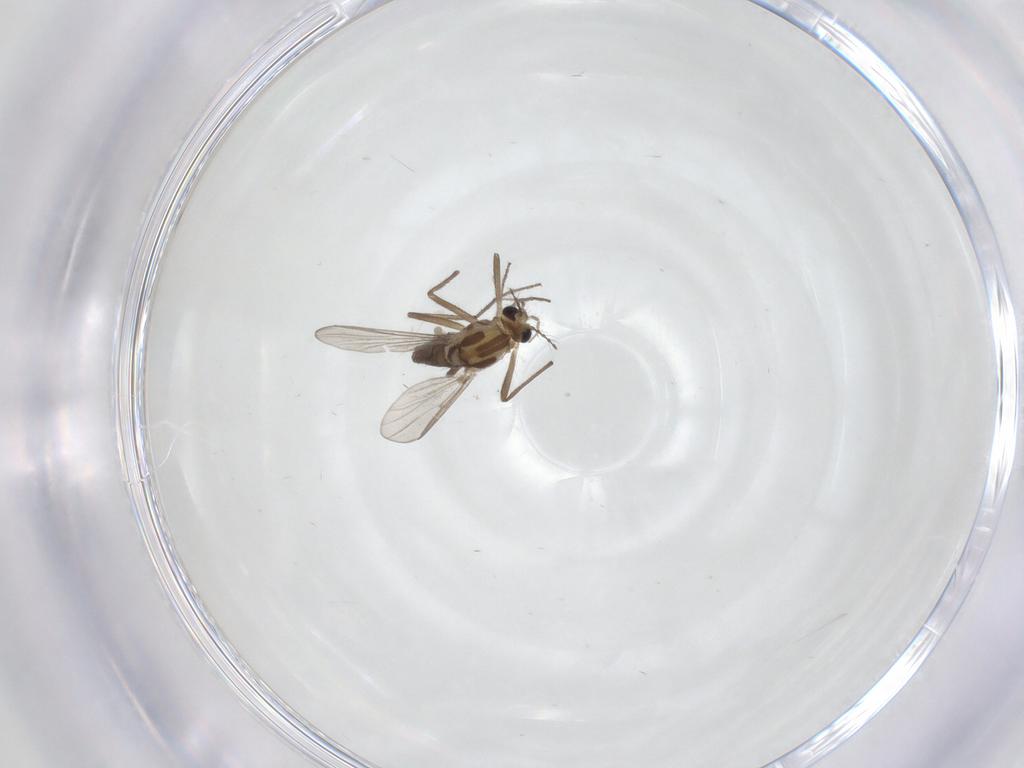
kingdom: Animalia
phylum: Arthropoda
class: Insecta
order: Diptera
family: Chironomidae
